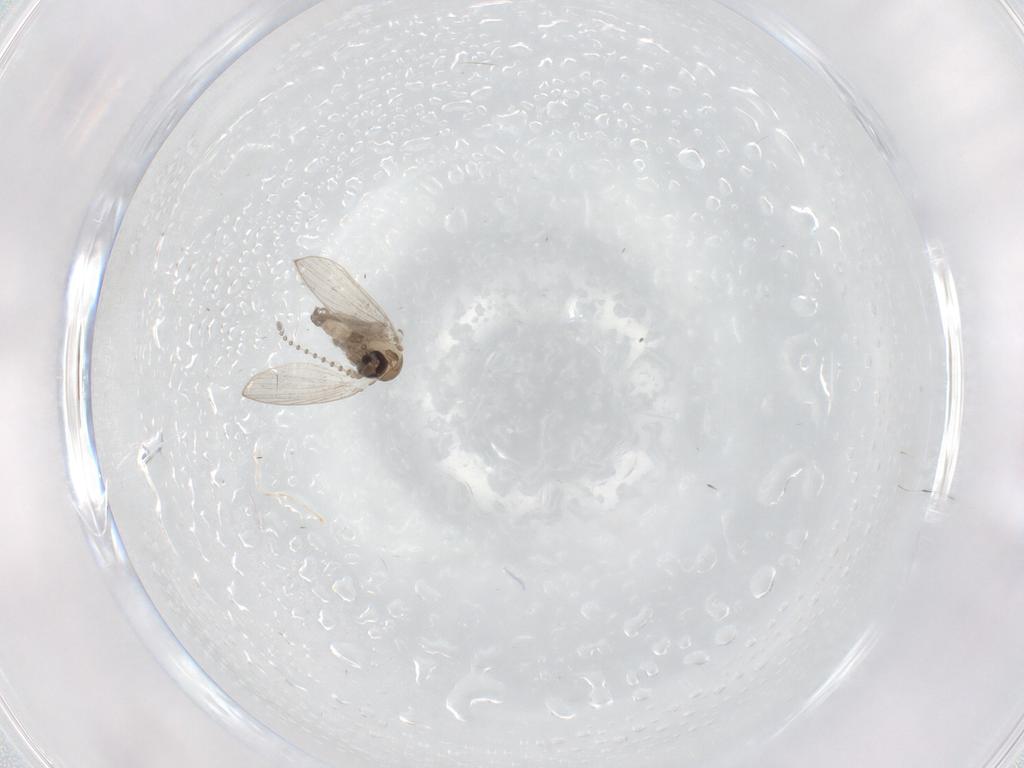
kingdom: Animalia
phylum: Arthropoda
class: Insecta
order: Diptera
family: Psychodidae
